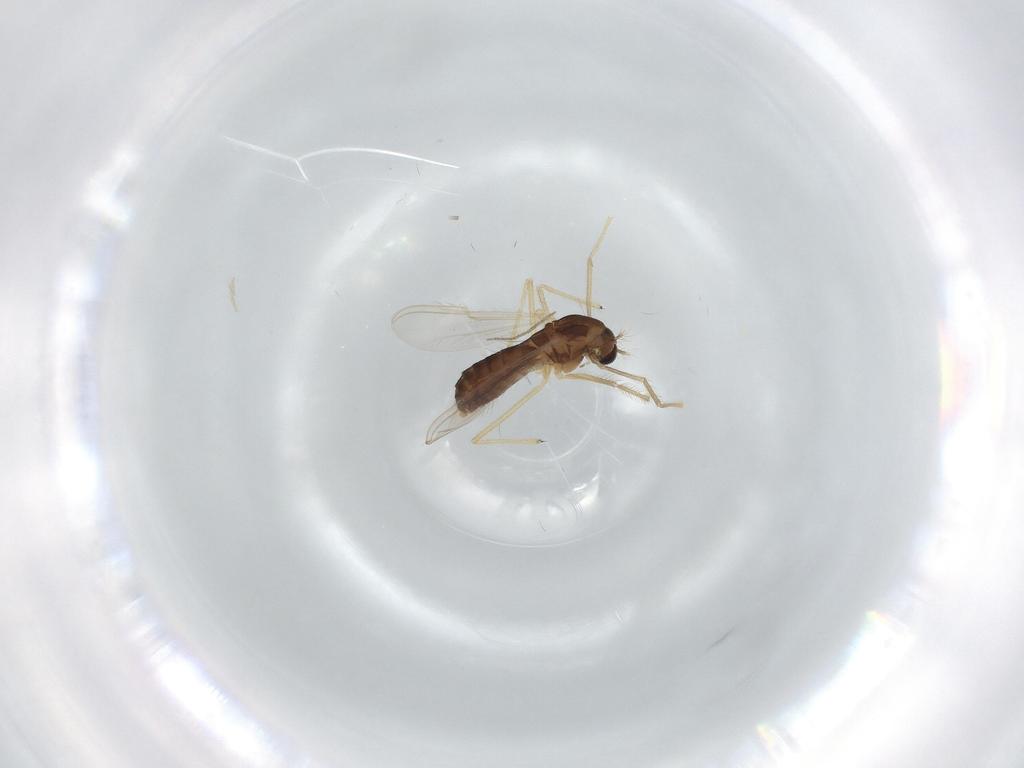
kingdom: Animalia
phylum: Arthropoda
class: Insecta
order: Diptera
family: Chironomidae
